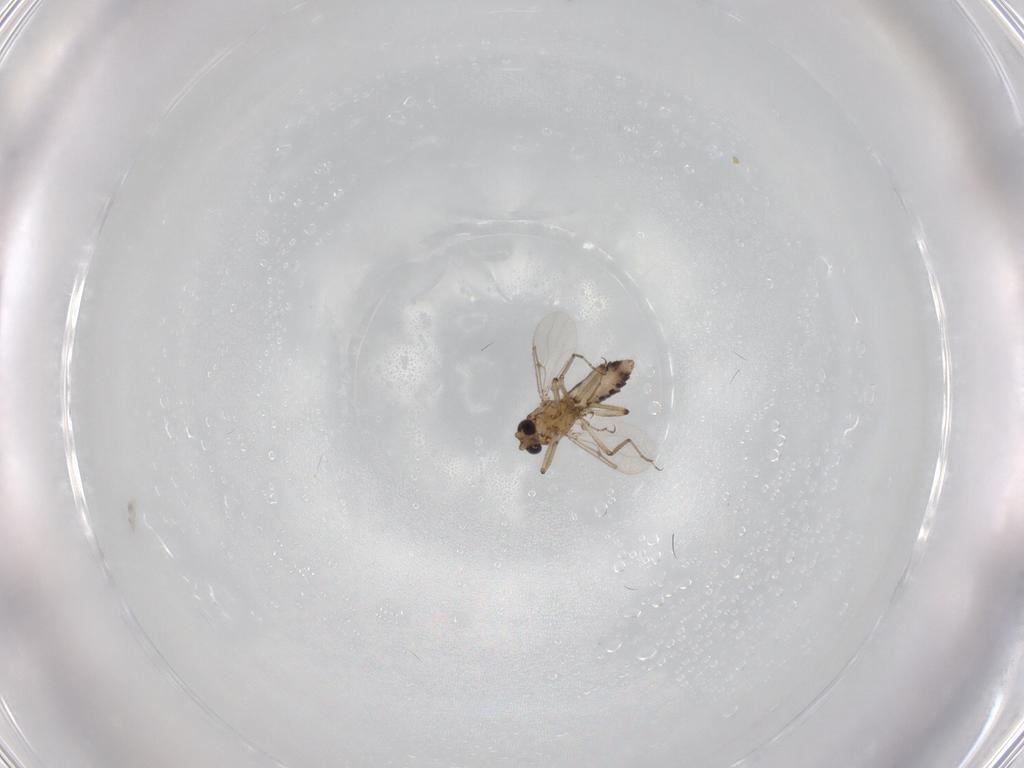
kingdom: Animalia
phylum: Arthropoda
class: Insecta
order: Diptera
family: Ceratopogonidae
